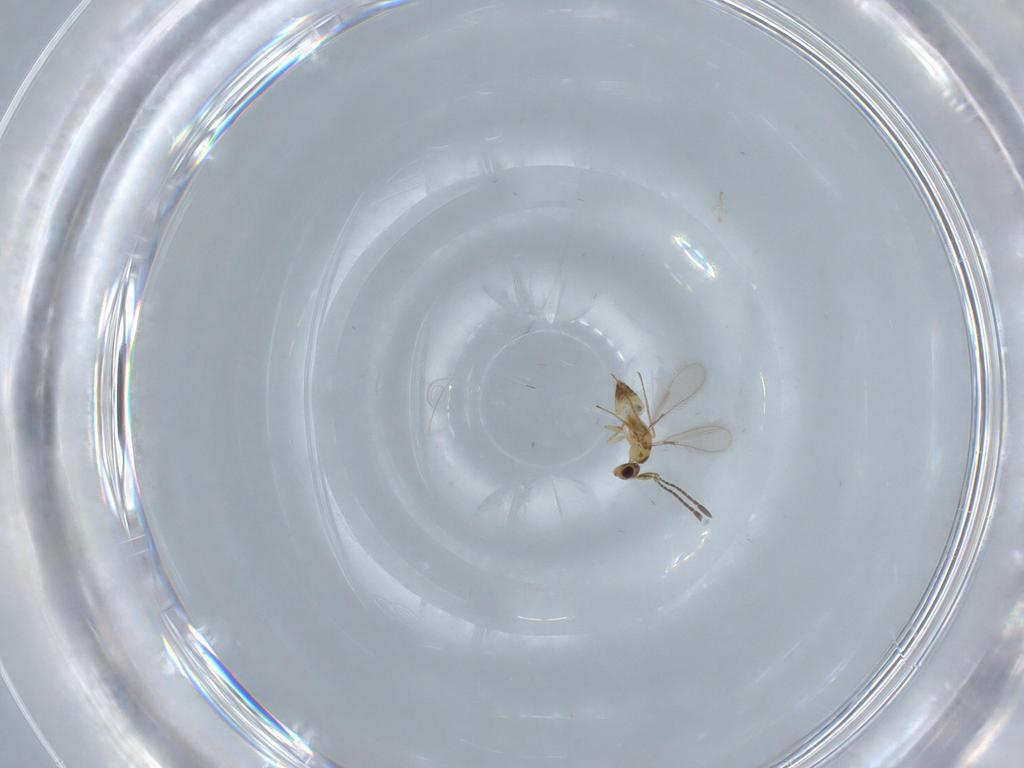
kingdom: Animalia
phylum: Arthropoda
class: Insecta
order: Hymenoptera
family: Mymaridae
